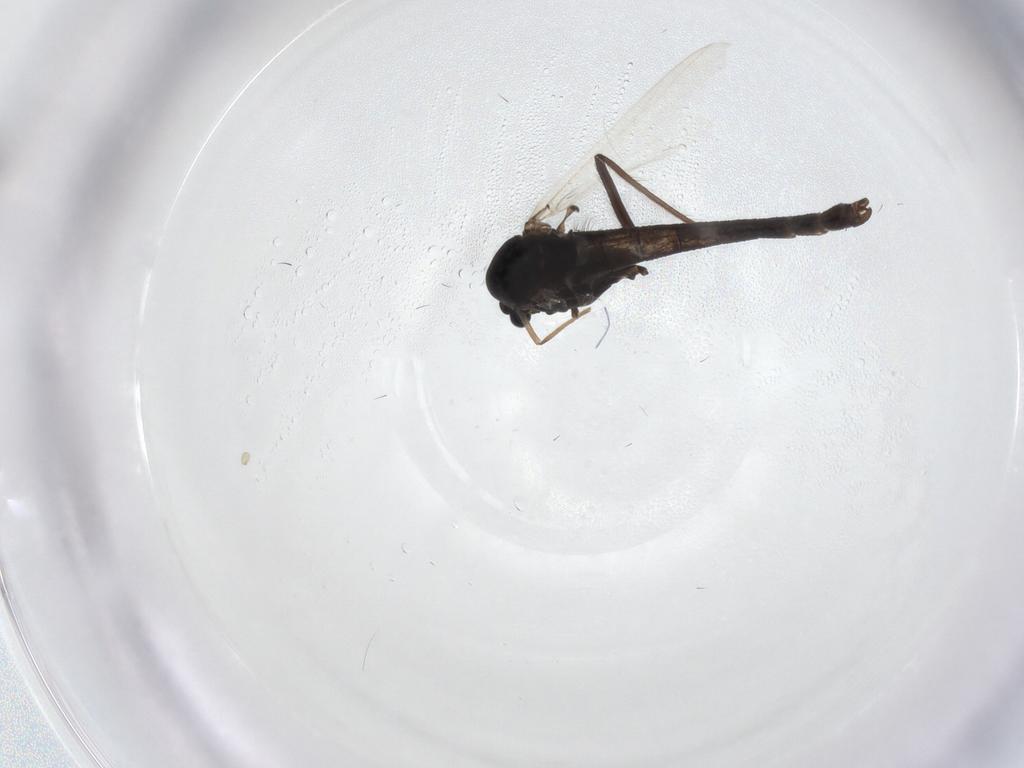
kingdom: Animalia
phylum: Arthropoda
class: Insecta
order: Diptera
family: Chironomidae
